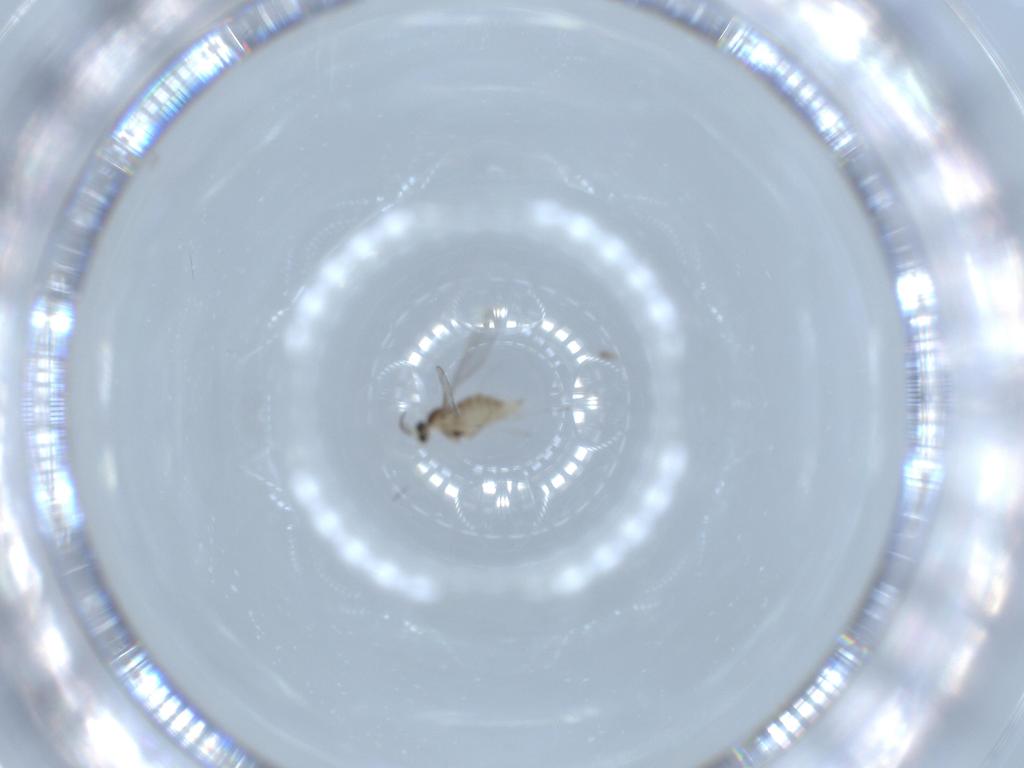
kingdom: Animalia
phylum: Arthropoda
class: Insecta
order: Diptera
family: Cecidomyiidae
